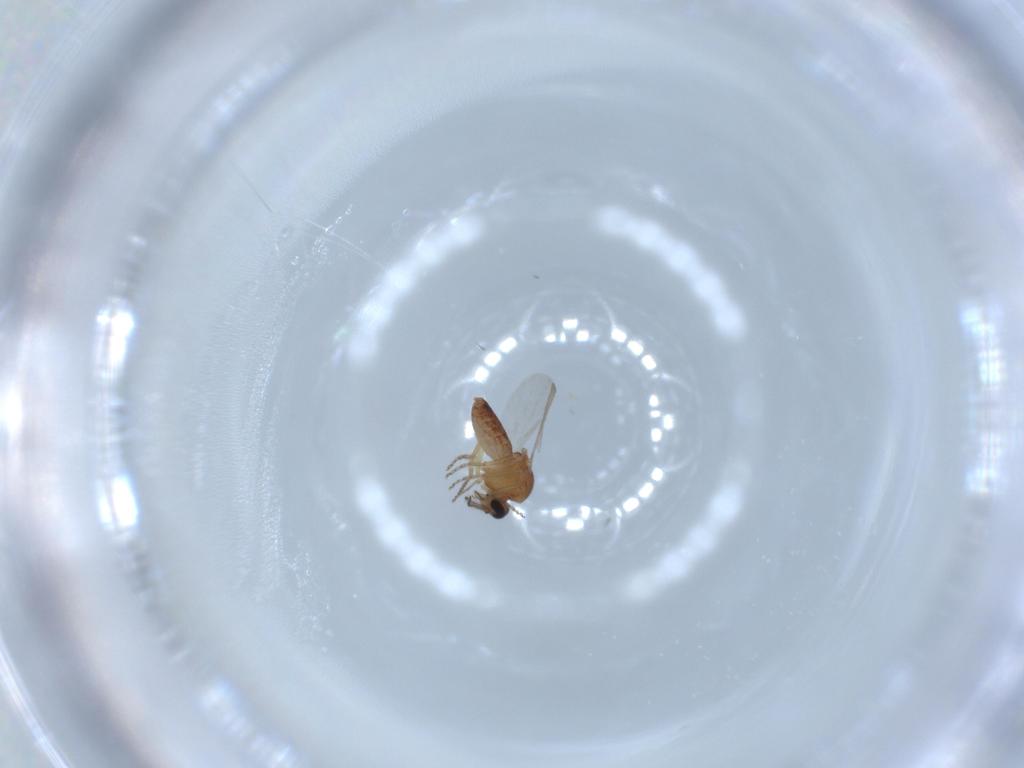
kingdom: Animalia
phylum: Arthropoda
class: Insecta
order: Diptera
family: Ceratopogonidae
